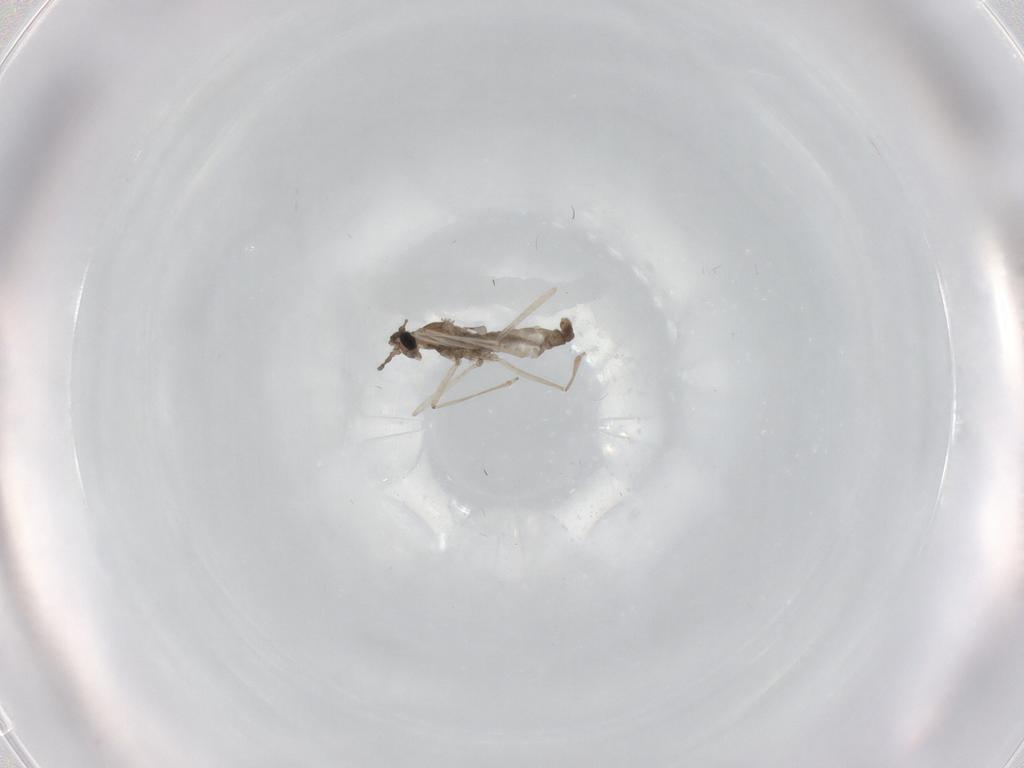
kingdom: Animalia
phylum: Arthropoda
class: Insecta
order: Diptera
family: Cecidomyiidae
